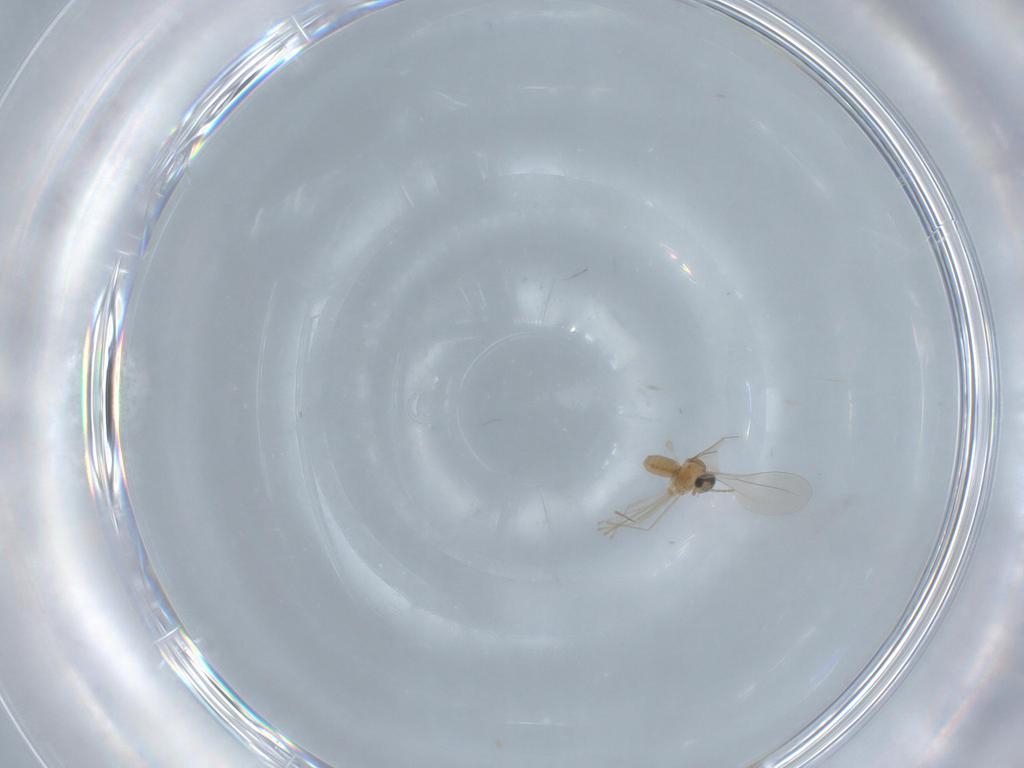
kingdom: Animalia
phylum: Arthropoda
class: Insecta
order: Diptera
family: Cecidomyiidae
